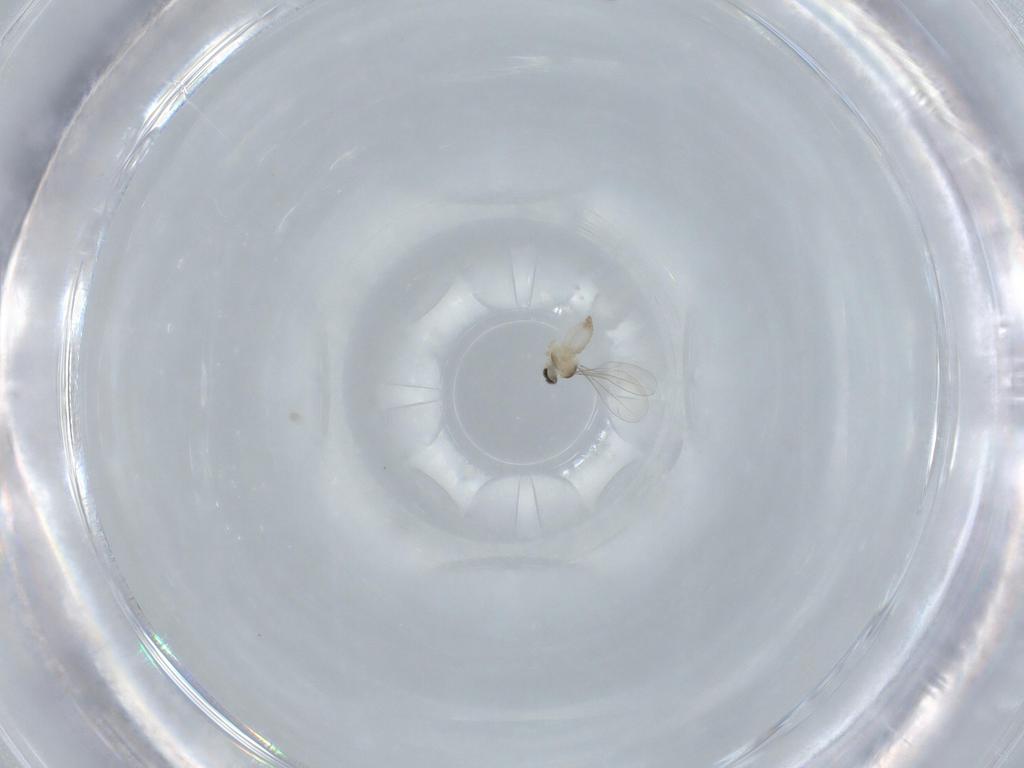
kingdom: Animalia
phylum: Arthropoda
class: Insecta
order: Diptera
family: Cecidomyiidae
